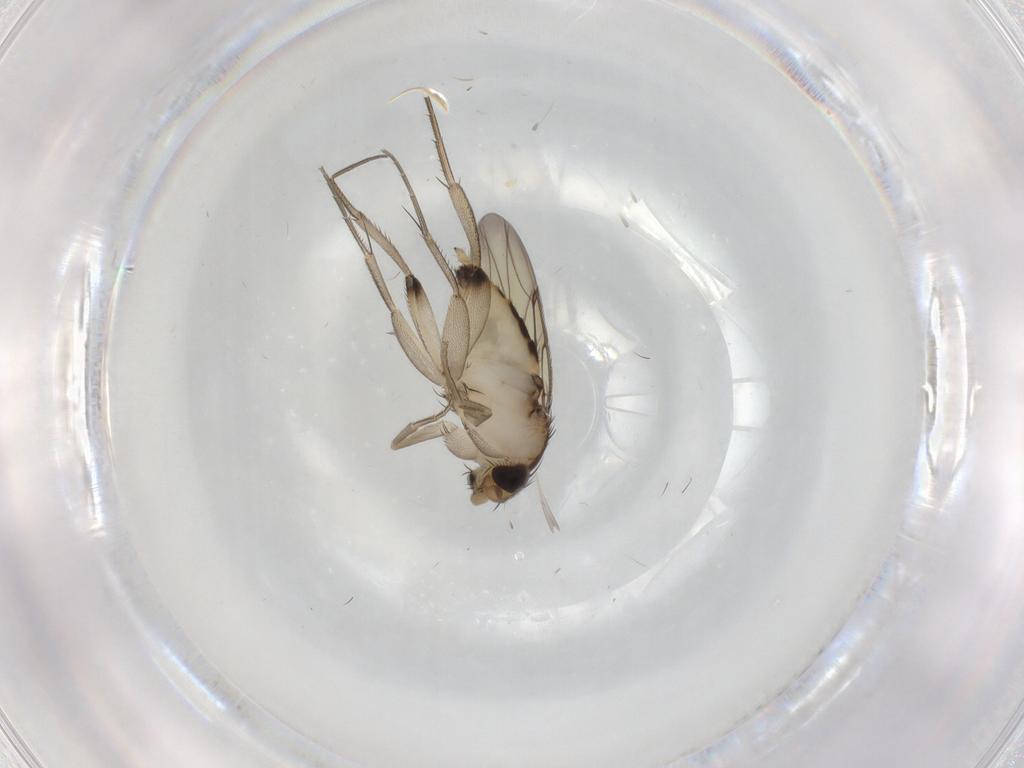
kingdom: Animalia
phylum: Arthropoda
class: Insecta
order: Diptera
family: Phoridae
